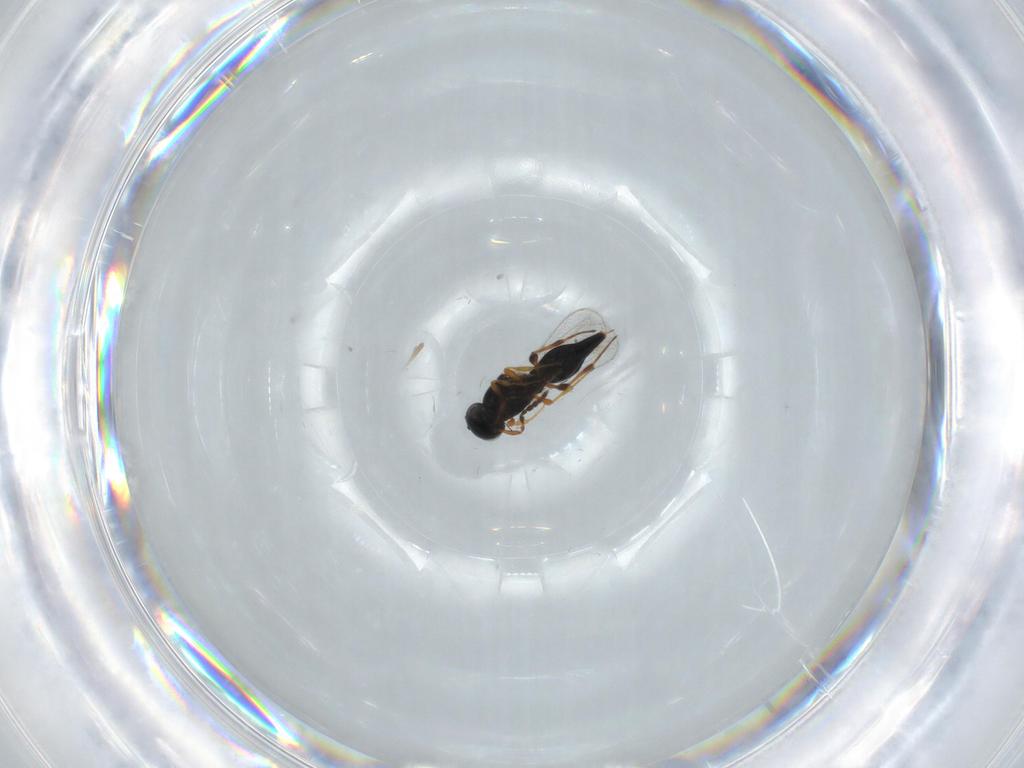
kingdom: Animalia
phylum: Arthropoda
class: Insecta
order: Hymenoptera
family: Platygastridae
